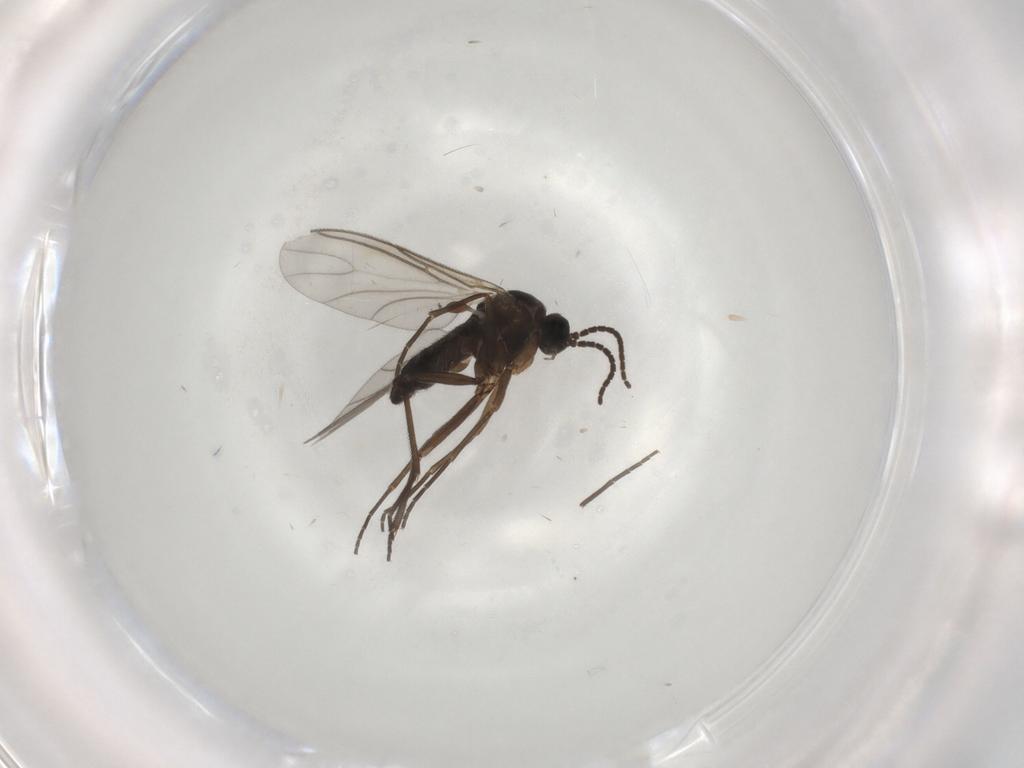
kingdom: Animalia
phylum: Arthropoda
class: Insecta
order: Diptera
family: Sciaridae
